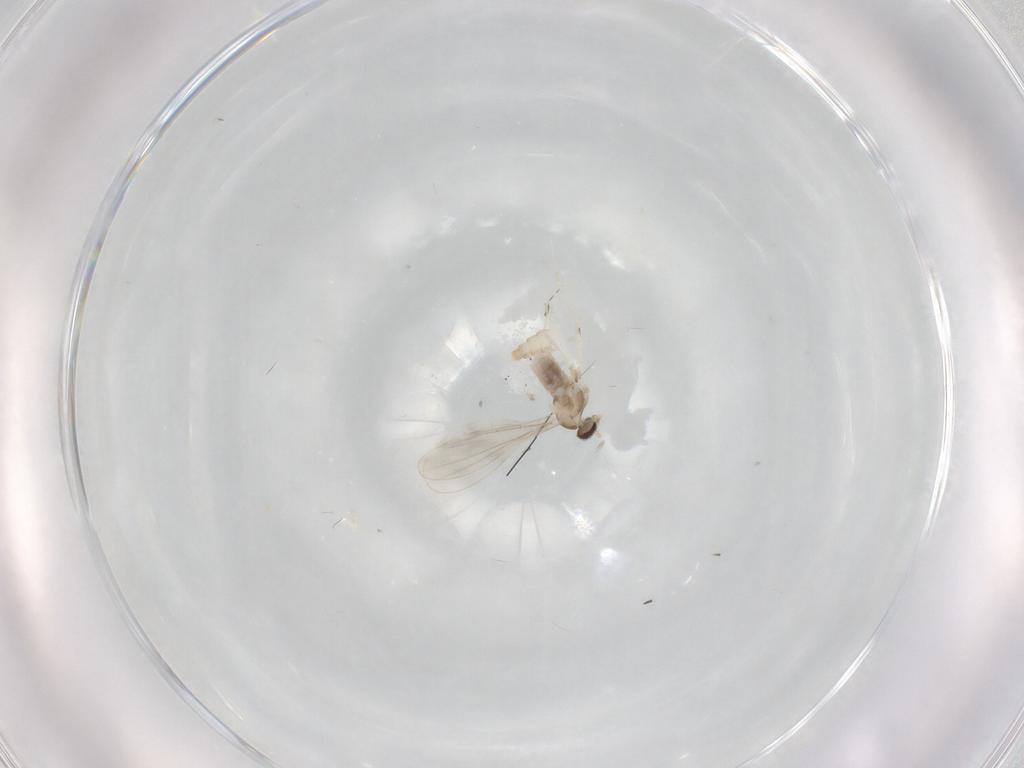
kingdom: Animalia
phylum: Arthropoda
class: Insecta
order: Diptera
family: Cecidomyiidae
